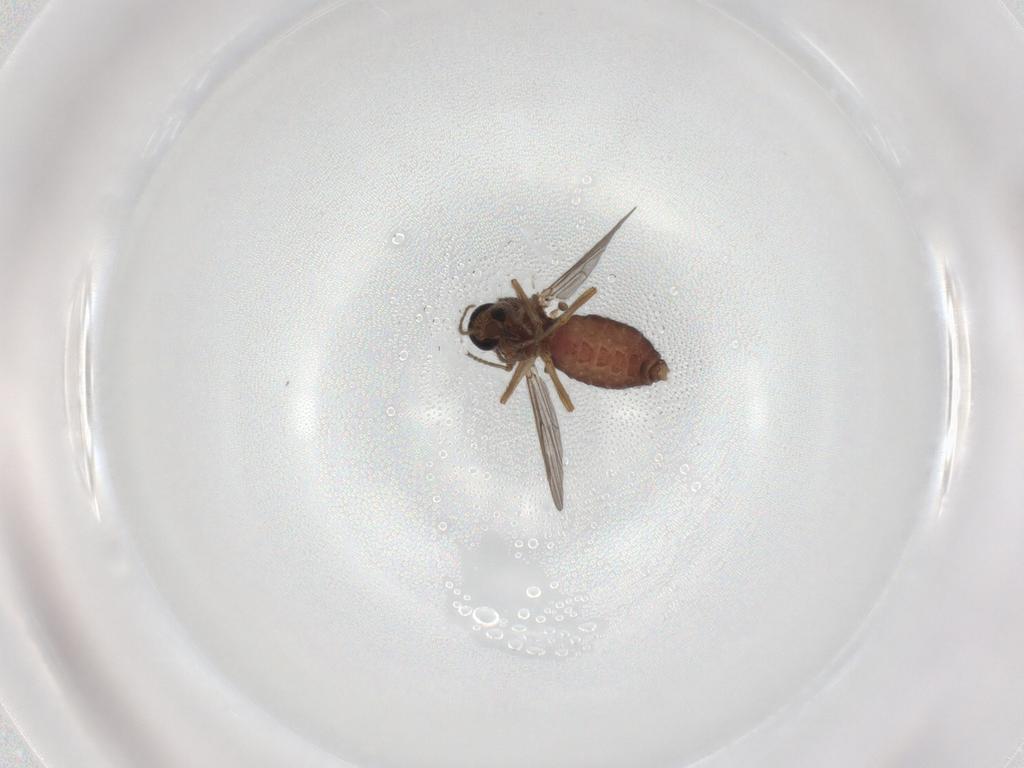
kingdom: Animalia
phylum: Arthropoda
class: Insecta
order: Diptera
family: Ceratopogonidae
